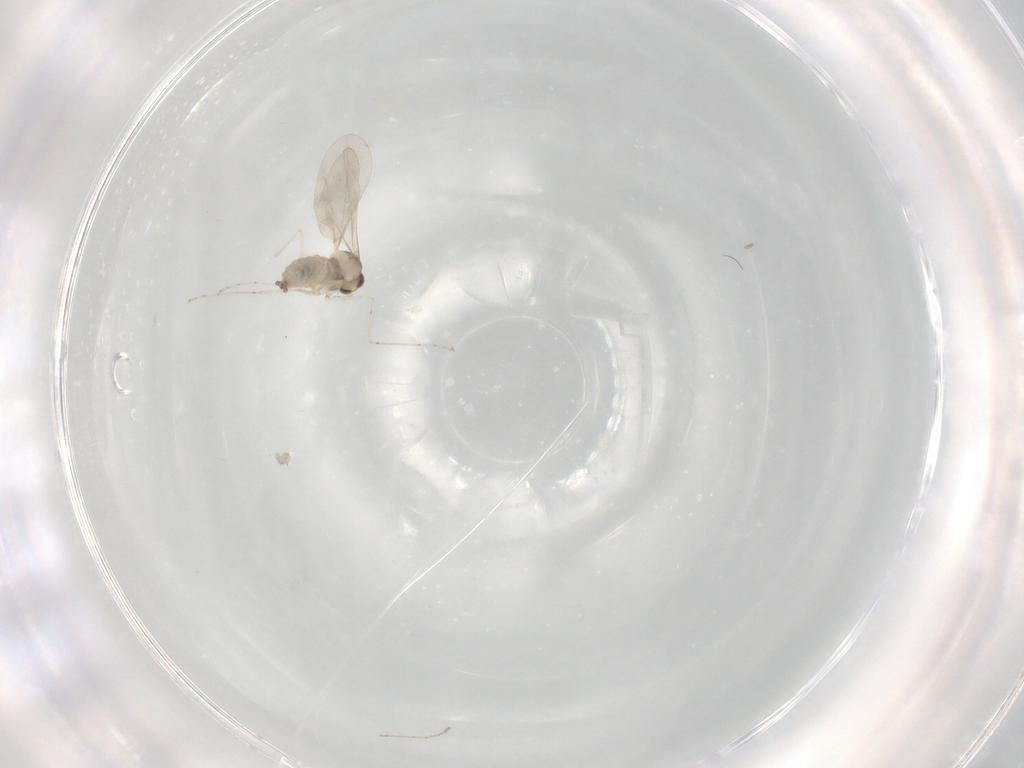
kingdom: Animalia
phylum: Arthropoda
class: Insecta
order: Diptera
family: Cecidomyiidae
